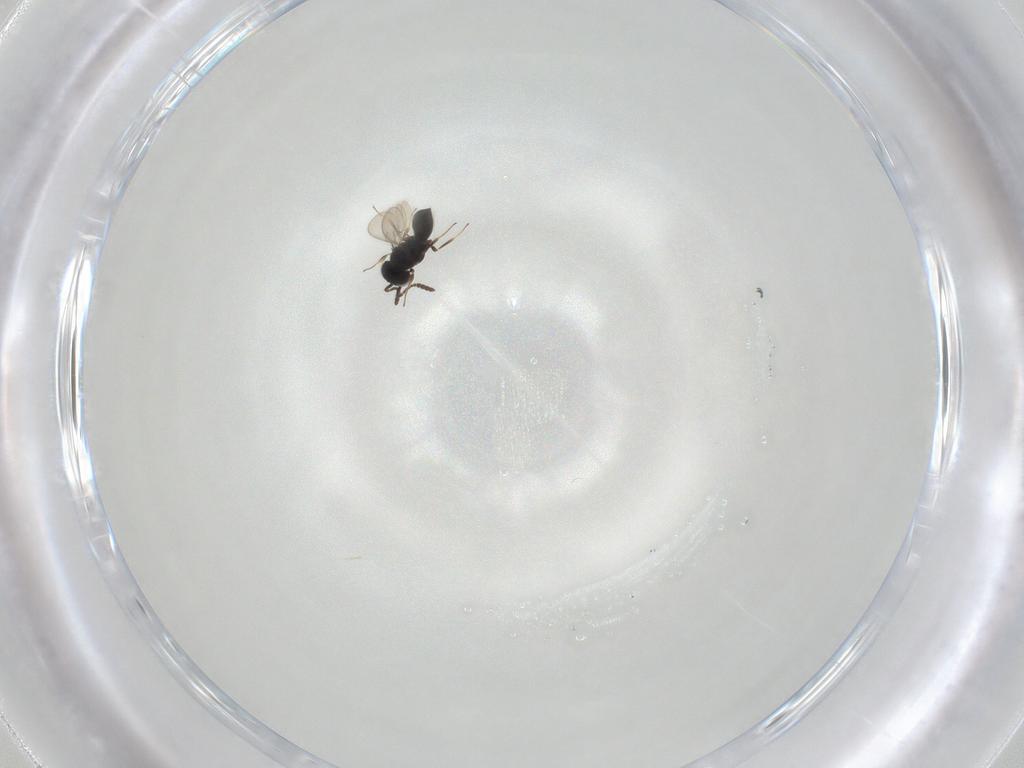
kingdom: Animalia
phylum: Arthropoda
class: Insecta
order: Hymenoptera
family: Scelionidae
